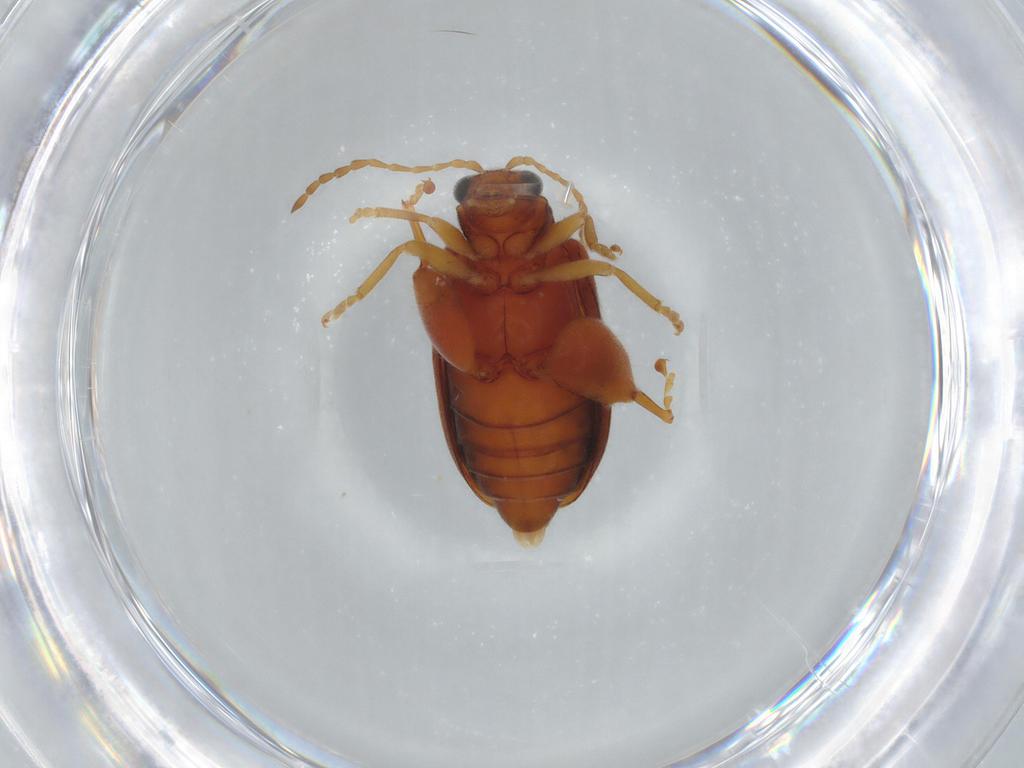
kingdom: Animalia
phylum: Arthropoda
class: Insecta
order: Coleoptera
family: Chrysomelidae
